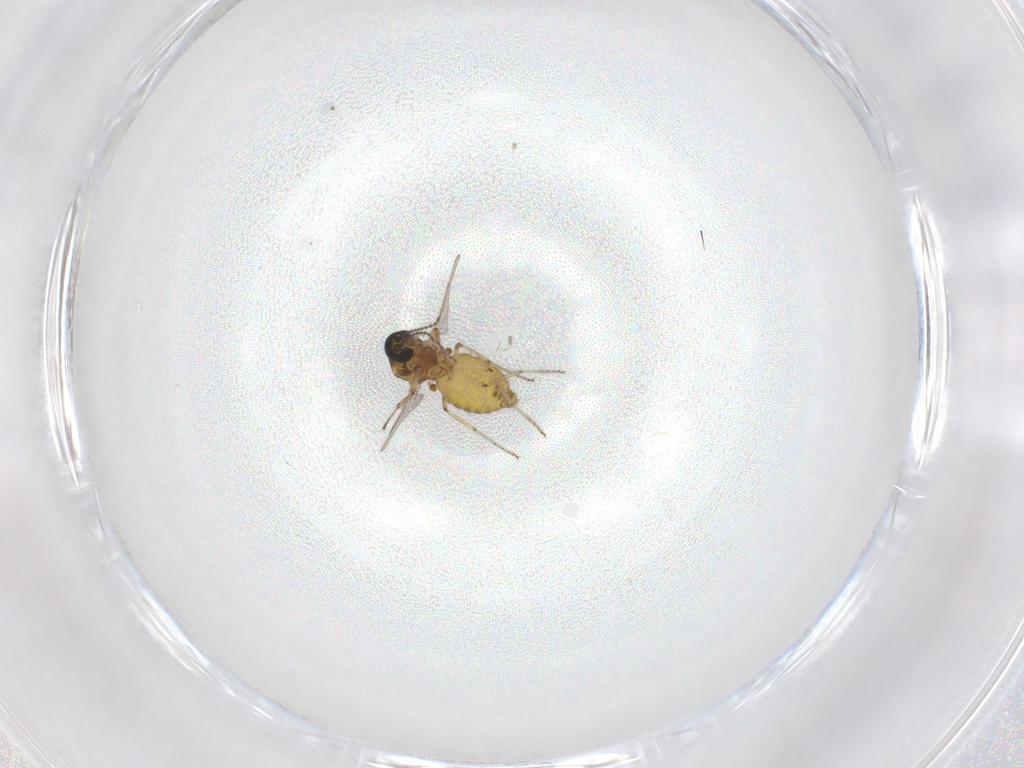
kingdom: Animalia
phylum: Arthropoda
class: Insecta
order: Diptera
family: Ceratopogonidae
